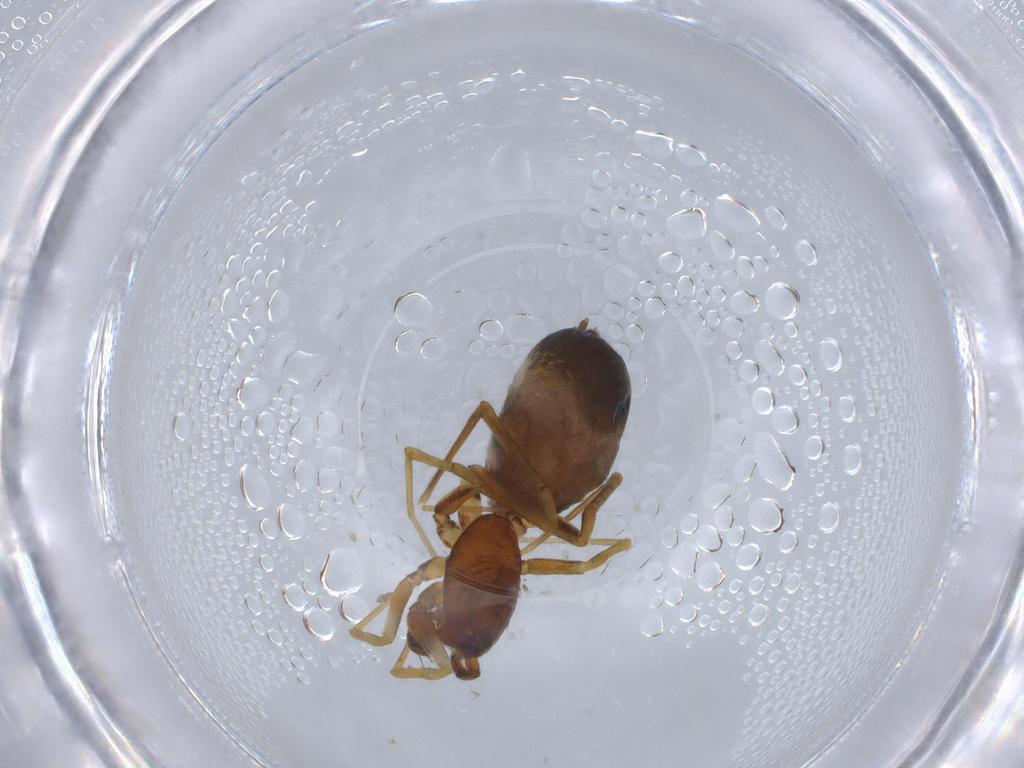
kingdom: Animalia
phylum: Arthropoda
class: Arachnida
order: Araneae
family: Gnaphosidae
